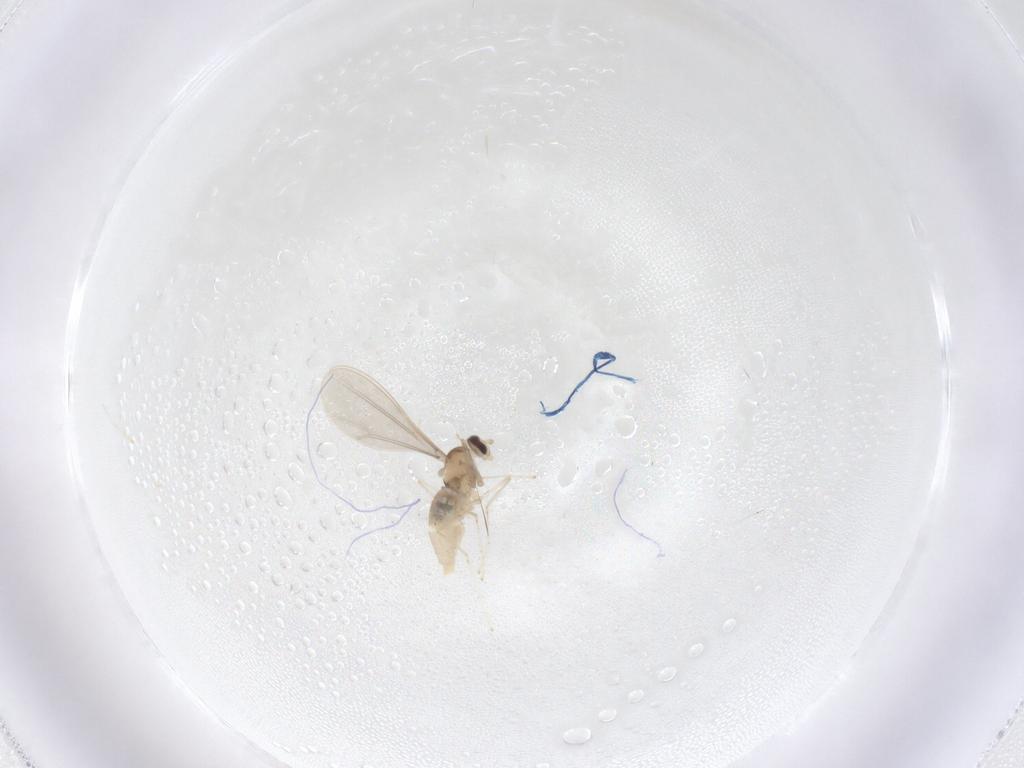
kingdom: Animalia
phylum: Arthropoda
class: Insecta
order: Diptera
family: Cecidomyiidae
